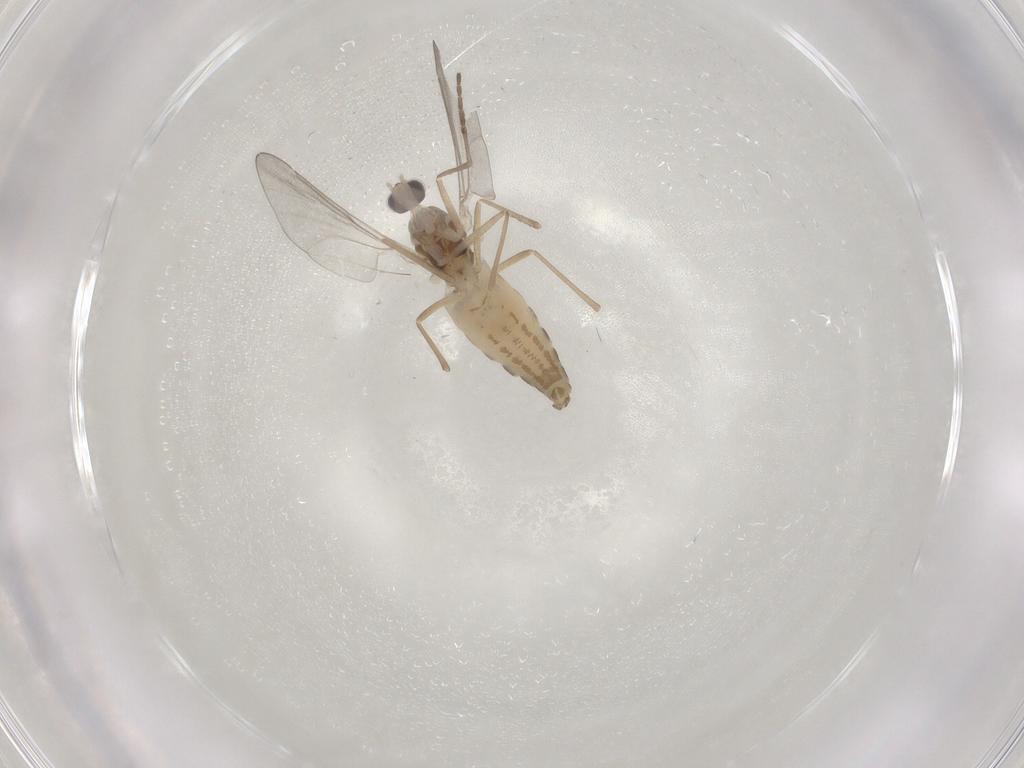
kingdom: Animalia
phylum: Arthropoda
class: Insecta
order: Diptera
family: Cecidomyiidae
